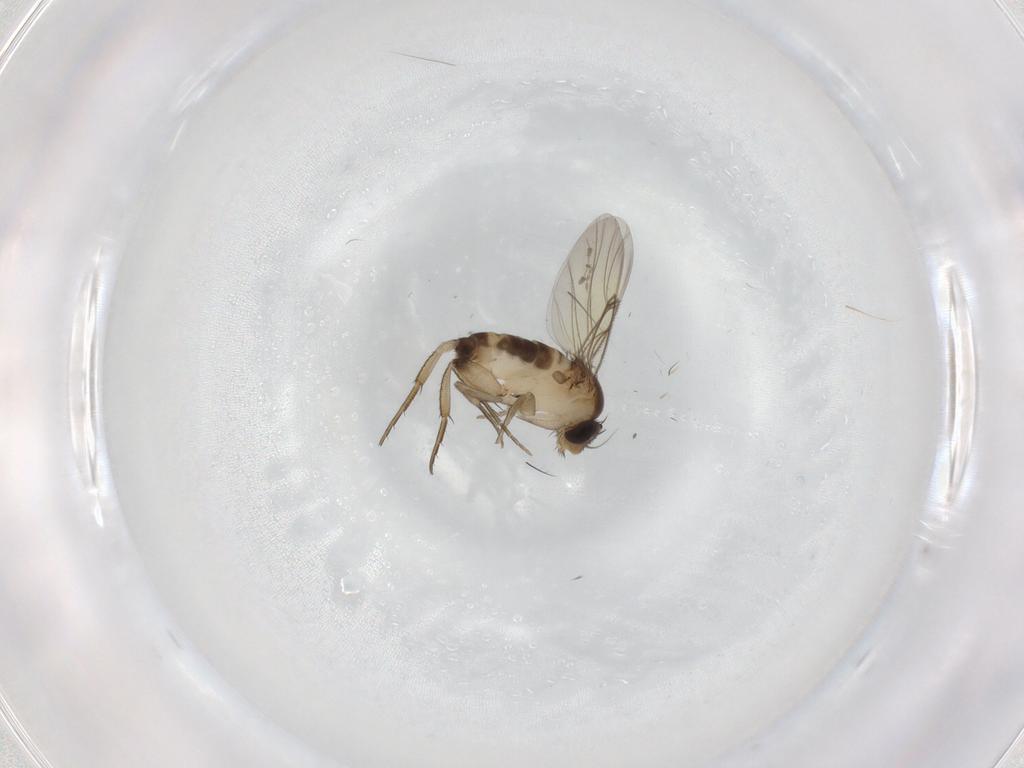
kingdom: Animalia
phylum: Arthropoda
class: Insecta
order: Diptera
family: Phoridae
